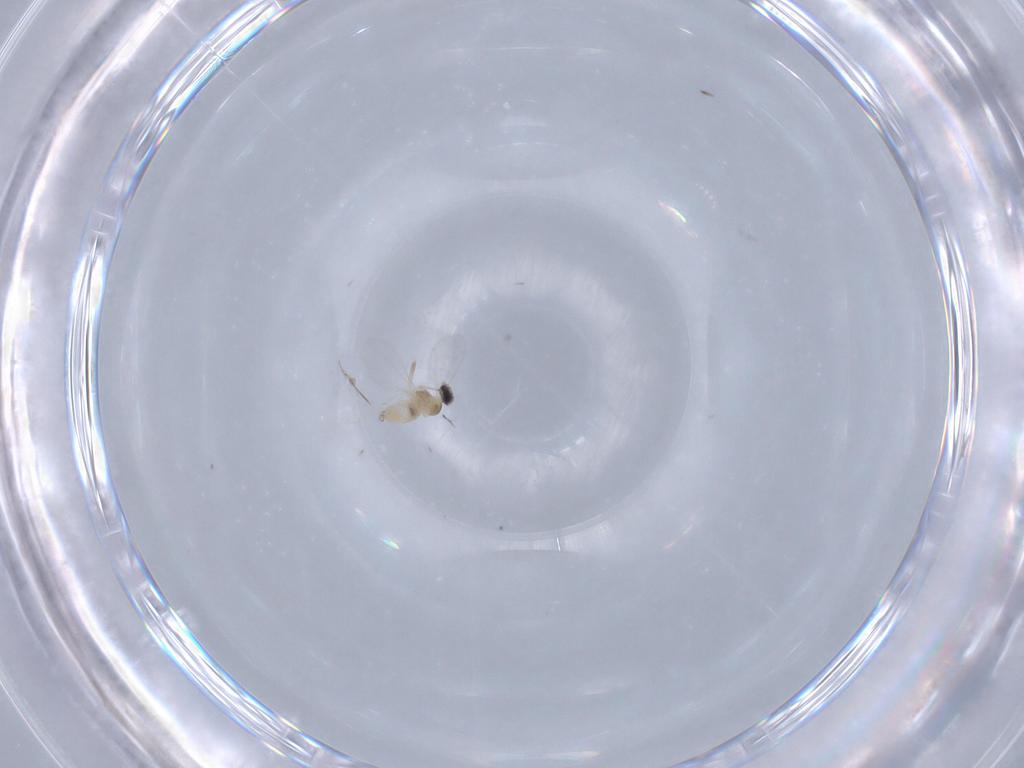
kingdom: Animalia
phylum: Arthropoda
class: Insecta
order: Diptera
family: Cecidomyiidae
